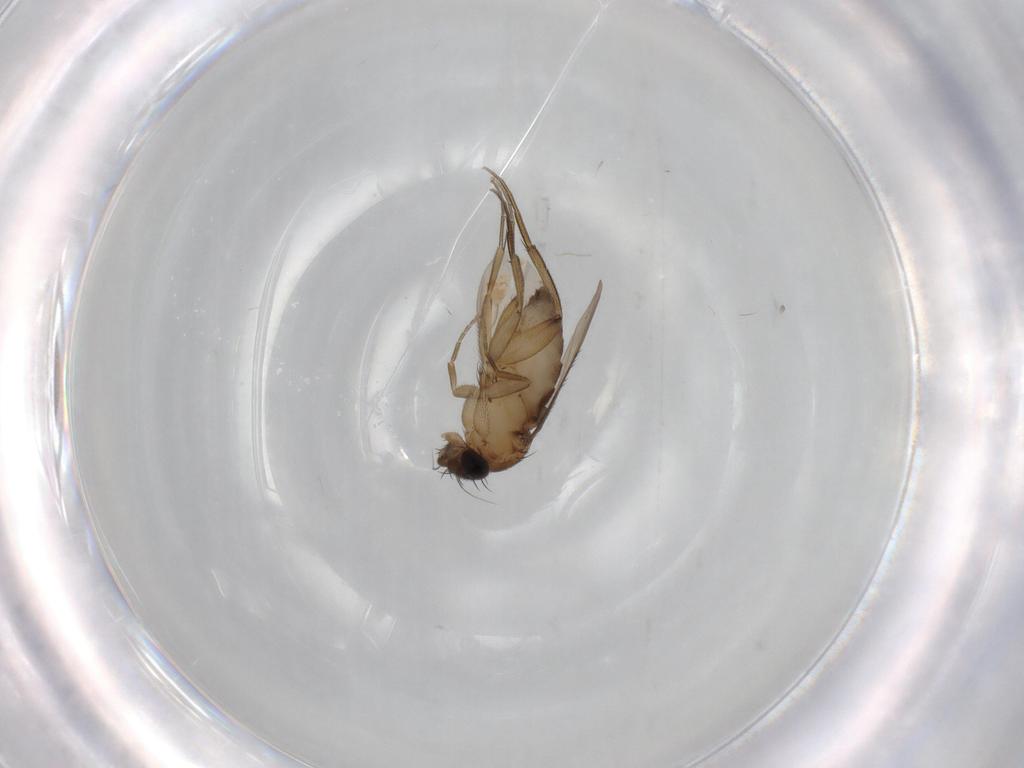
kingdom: Animalia
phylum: Arthropoda
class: Insecta
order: Diptera
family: Phoridae
